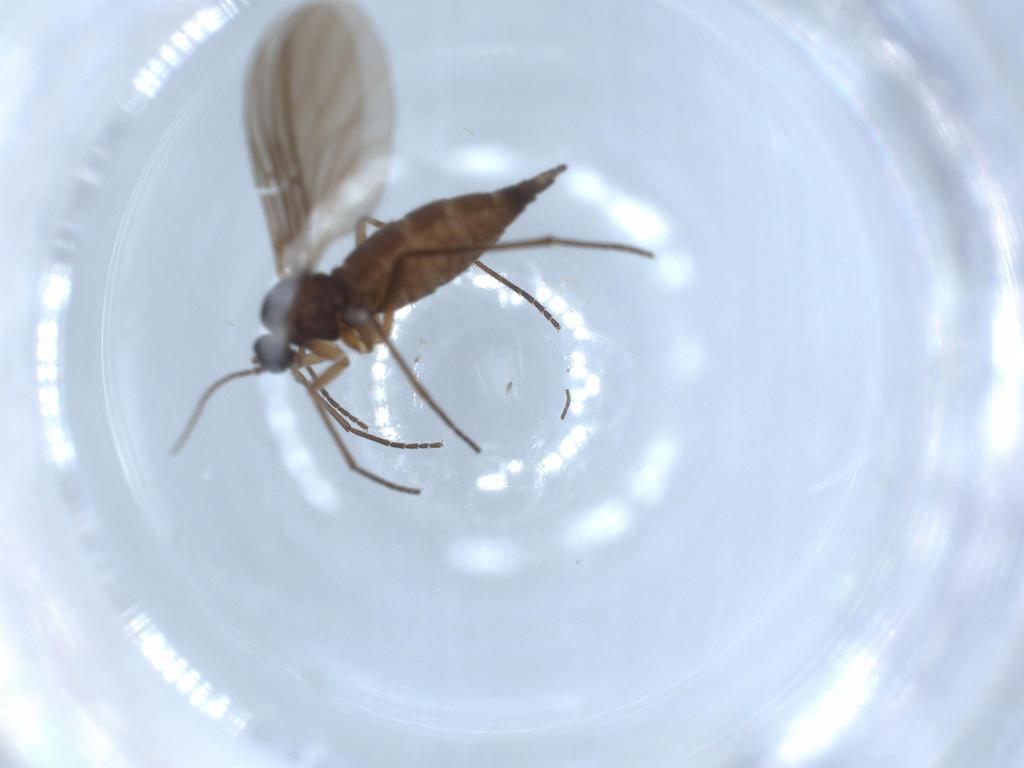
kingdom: Animalia
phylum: Arthropoda
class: Insecta
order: Diptera
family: Sciaridae
